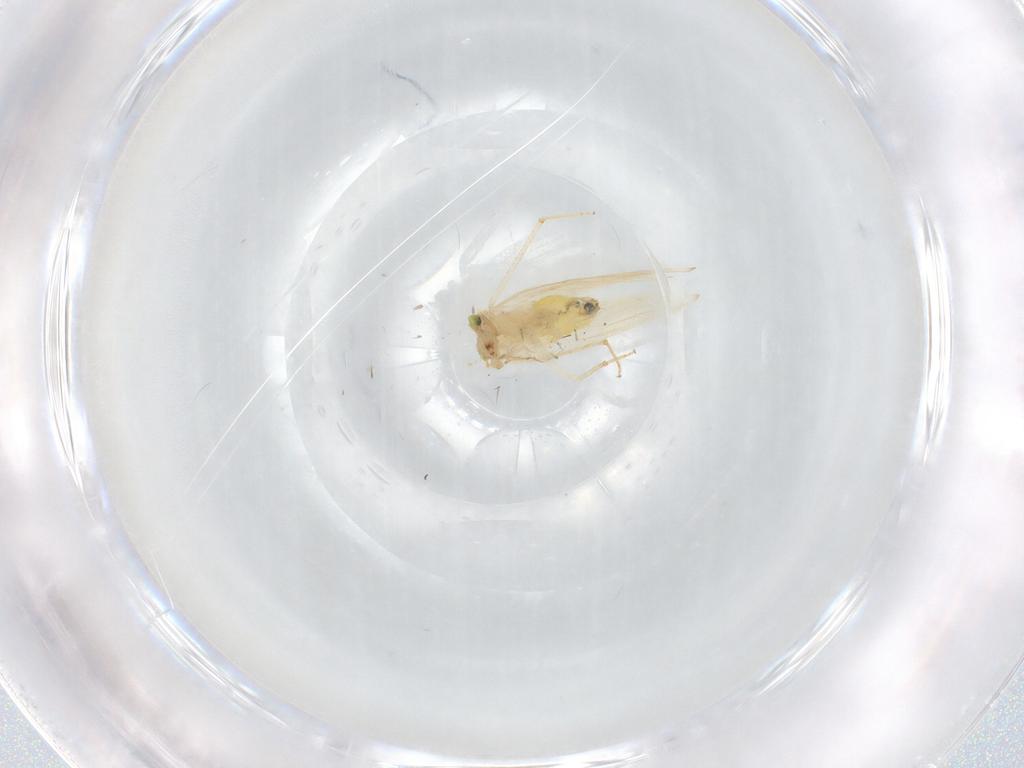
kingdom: Animalia
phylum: Arthropoda
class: Insecta
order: Psocodea
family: Lepidopsocidae
